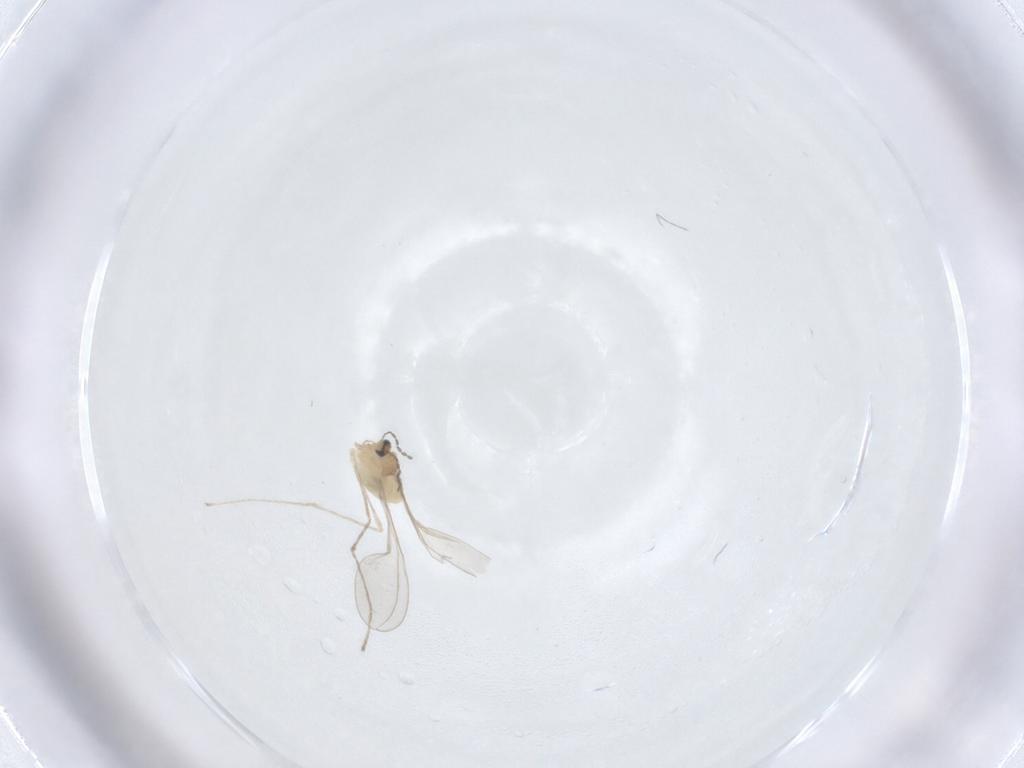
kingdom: Animalia
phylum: Arthropoda
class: Insecta
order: Diptera
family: Cecidomyiidae
